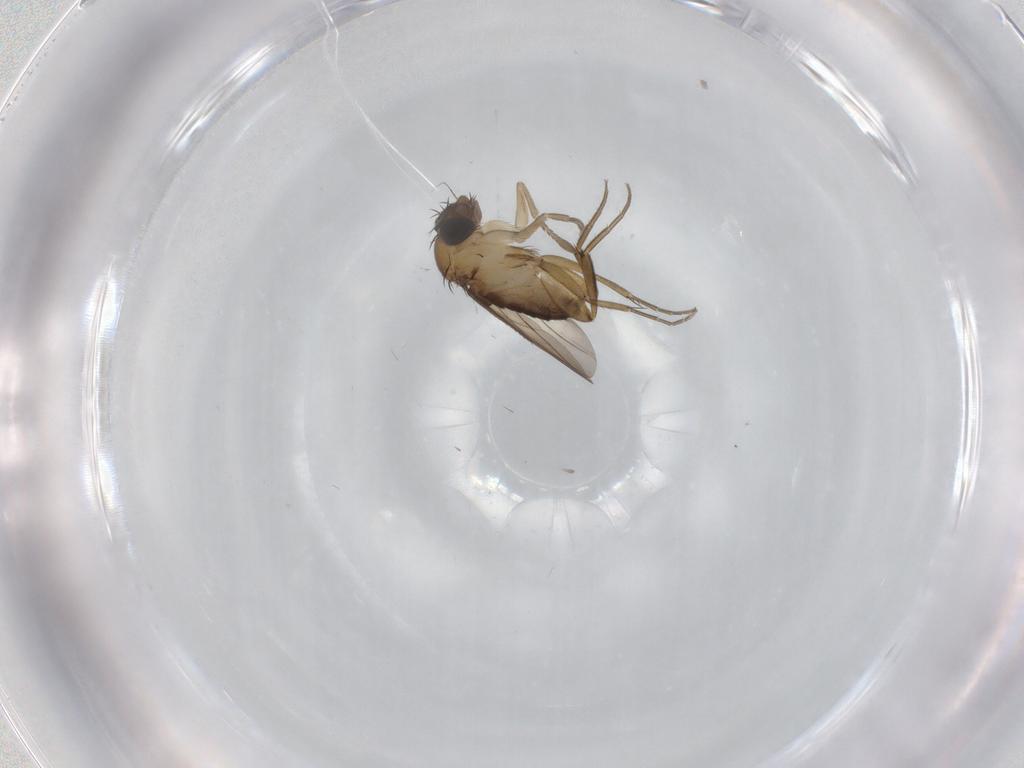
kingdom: Animalia
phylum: Arthropoda
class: Insecta
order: Diptera
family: Phoridae
